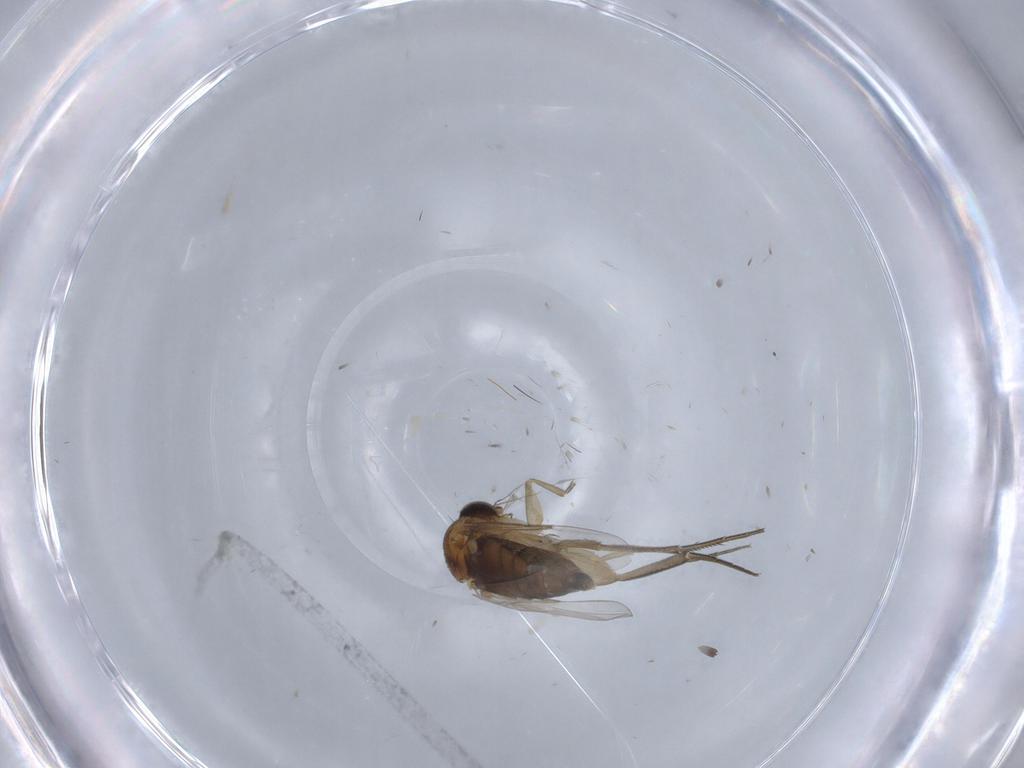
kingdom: Animalia
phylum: Arthropoda
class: Insecta
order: Diptera
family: Phoridae
